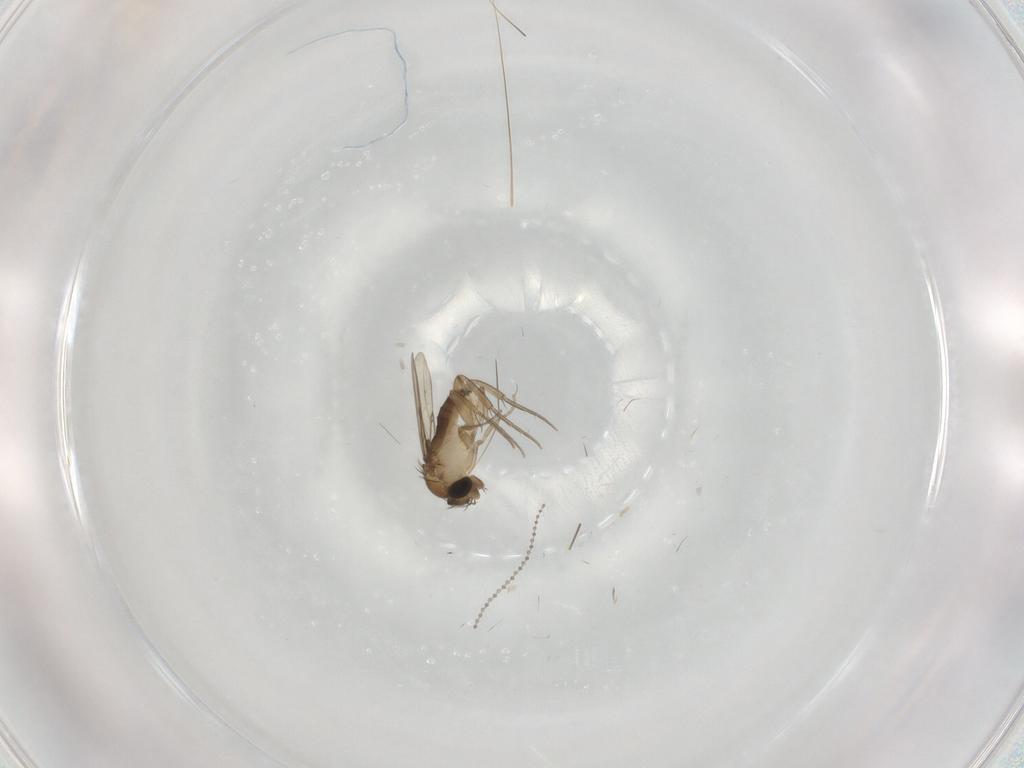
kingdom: Animalia
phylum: Arthropoda
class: Insecta
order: Diptera
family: Phoridae
